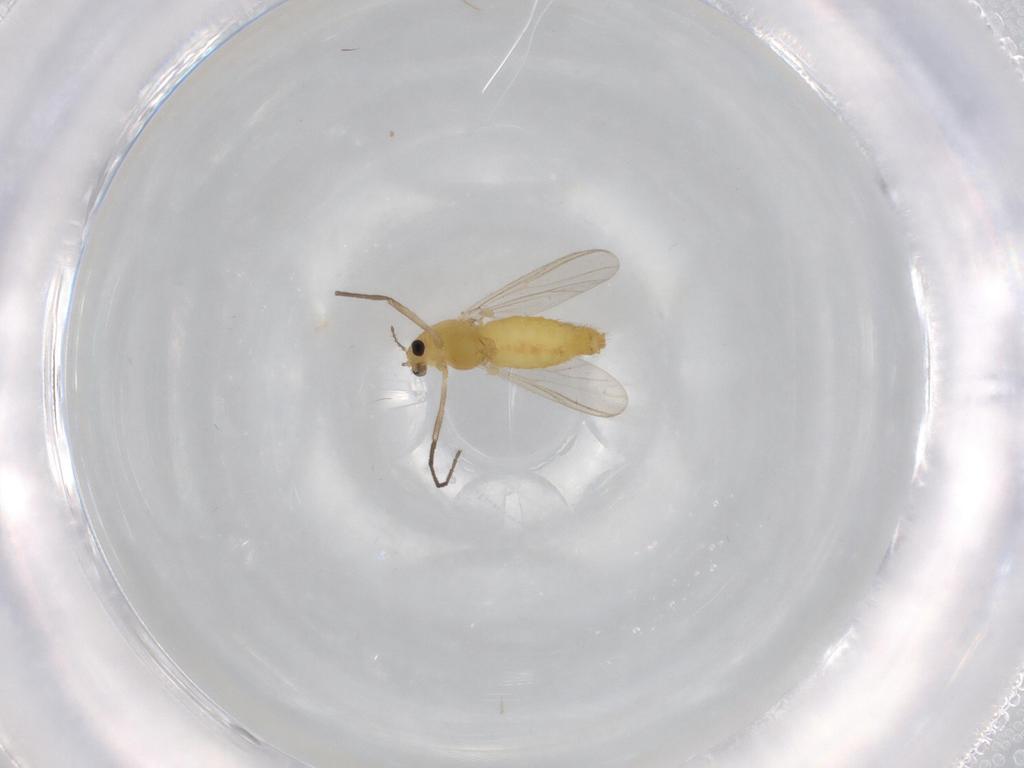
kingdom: Animalia
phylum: Arthropoda
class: Insecta
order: Diptera
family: Chironomidae
